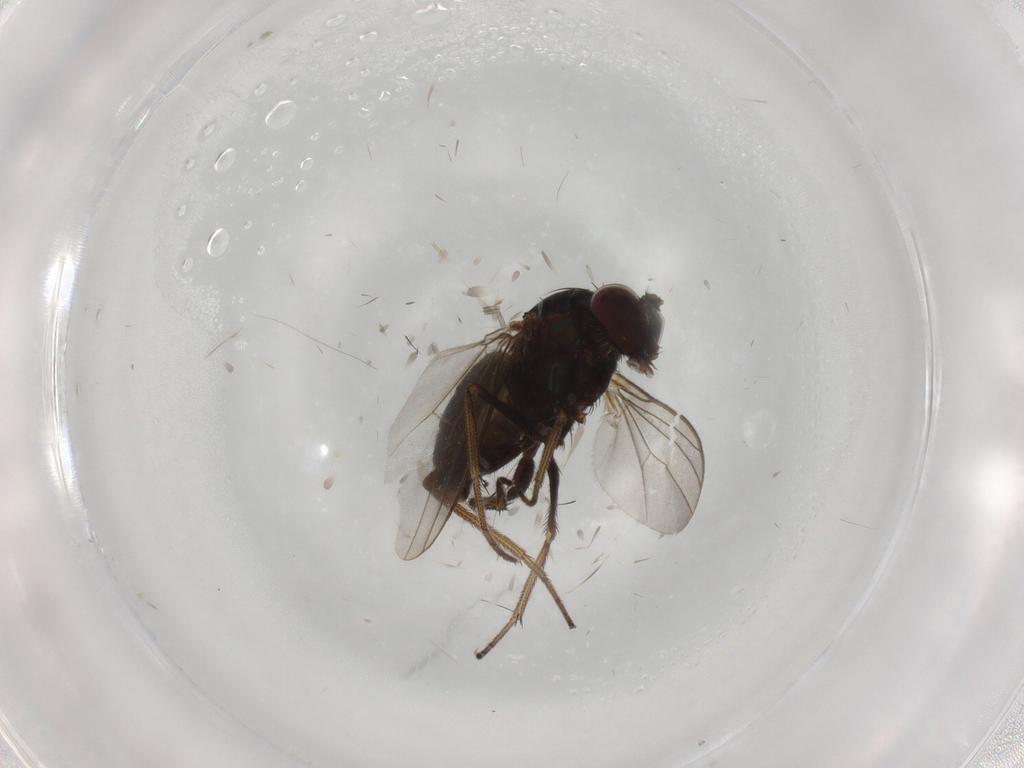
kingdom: Animalia
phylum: Arthropoda
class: Insecta
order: Diptera
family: Dolichopodidae
